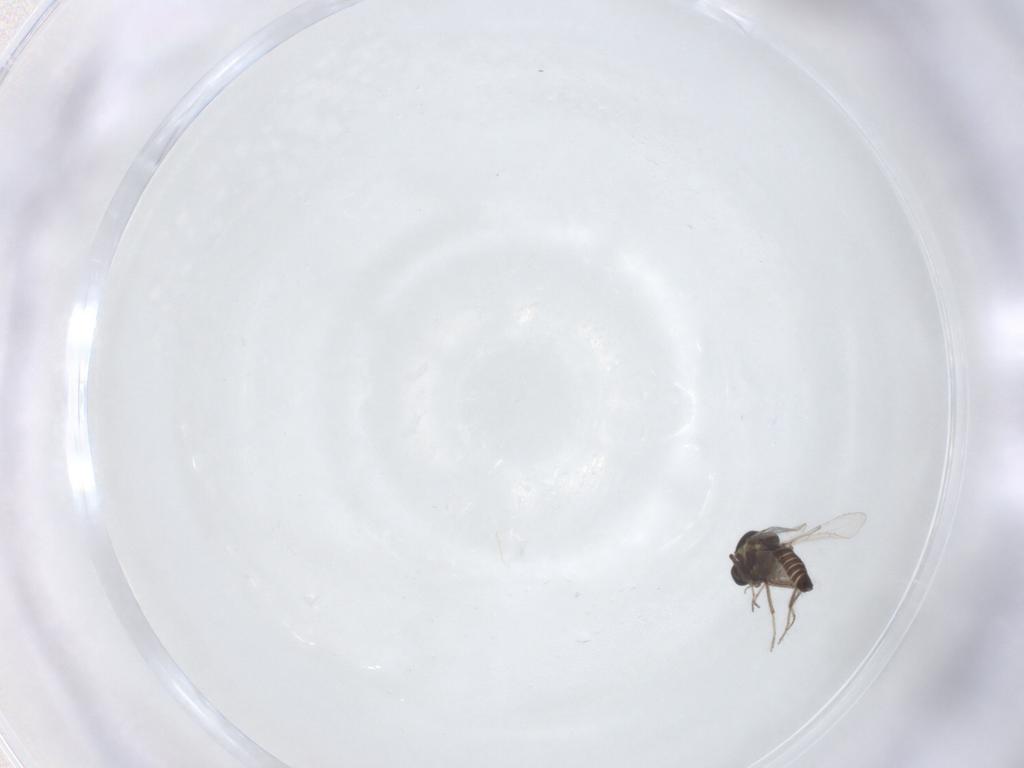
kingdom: Animalia
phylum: Arthropoda
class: Insecta
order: Diptera
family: Ceratopogonidae
